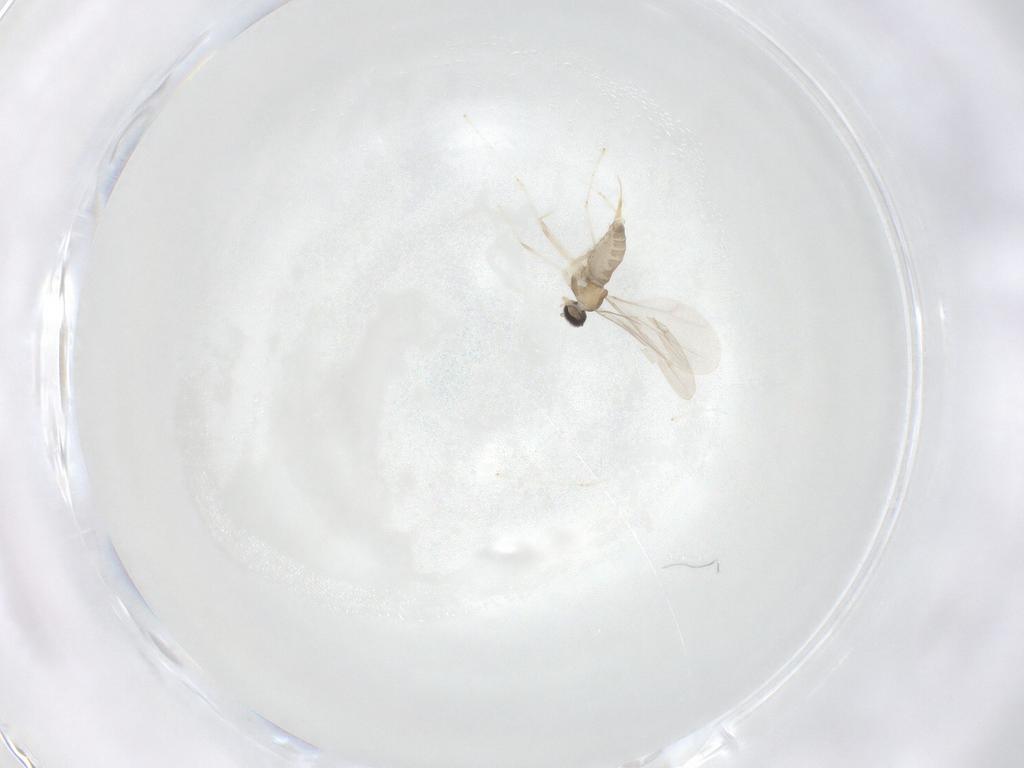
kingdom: Animalia
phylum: Arthropoda
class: Insecta
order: Diptera
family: Cecidomyiidae
